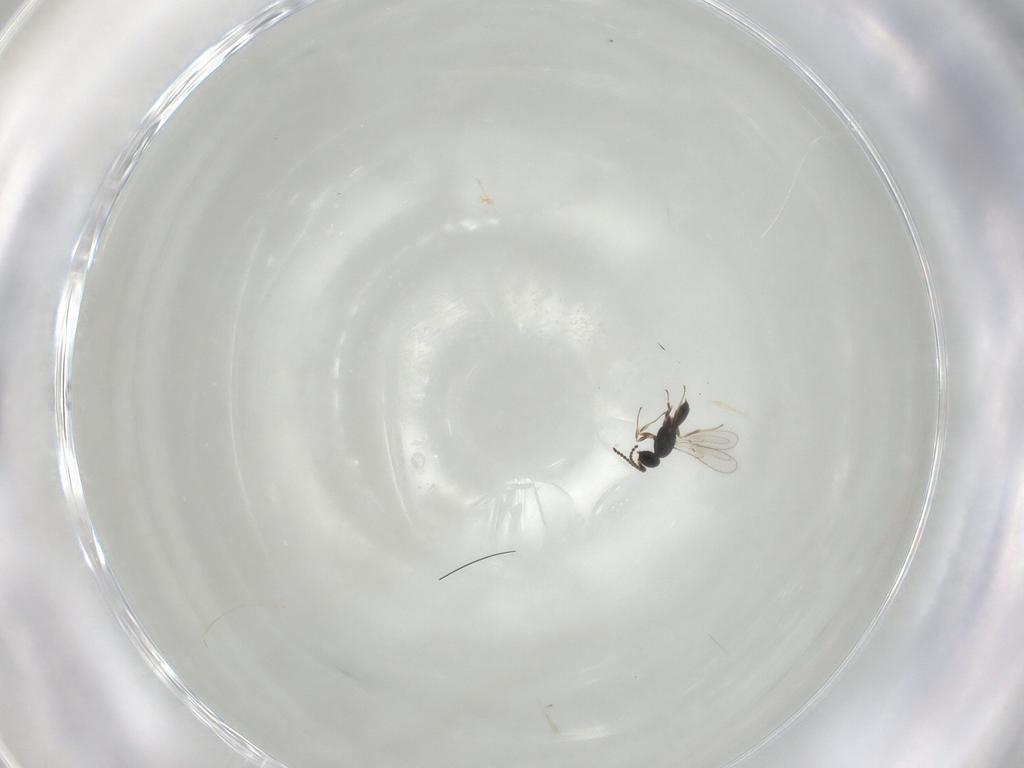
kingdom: Animalia
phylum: Arthropoda
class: Insecta
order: Hymenoptera
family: Scelionidae
